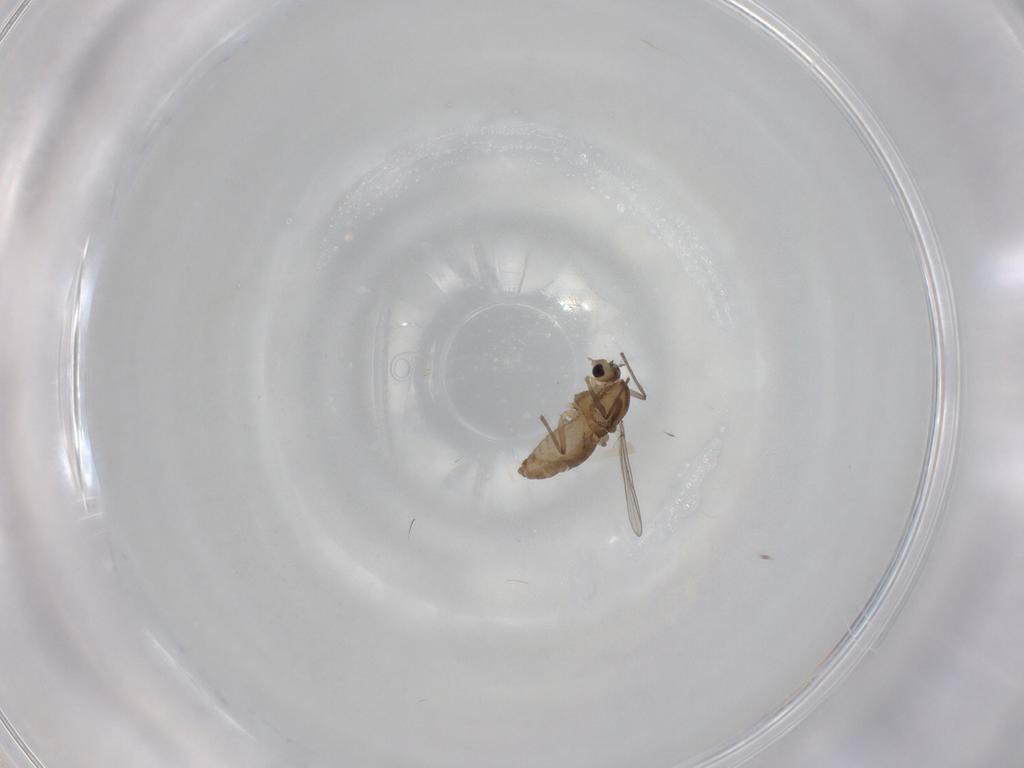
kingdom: Animalia
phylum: Arthropoda
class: Insecta
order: Diptera
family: Chironomidae
